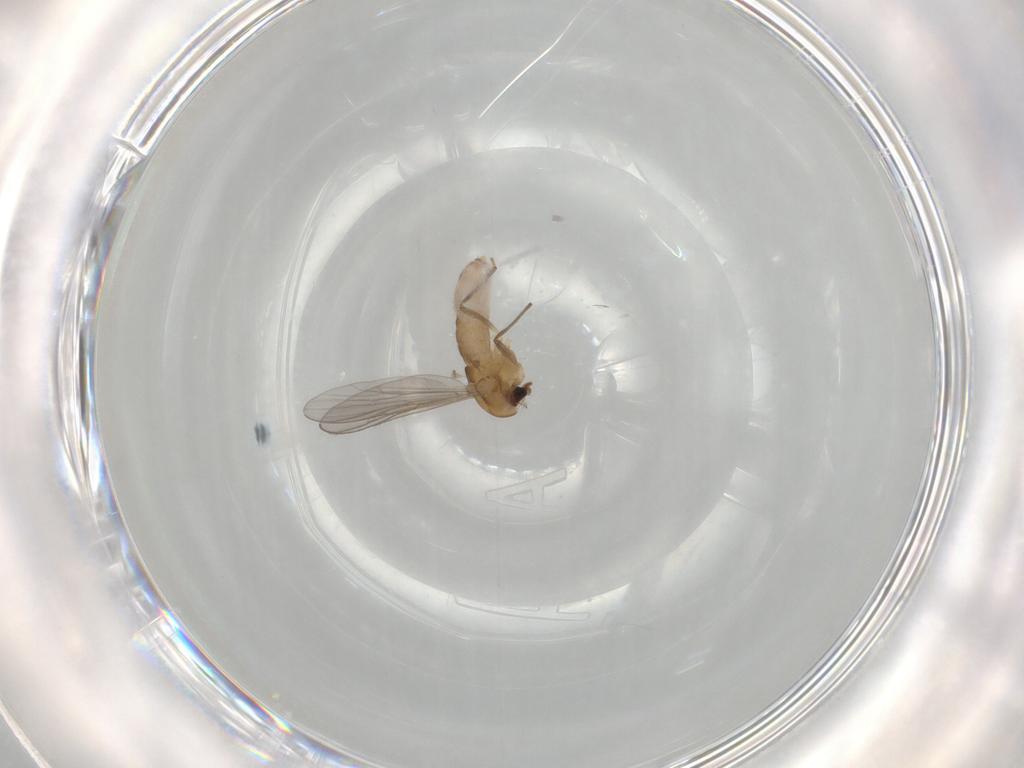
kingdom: Animalia
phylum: Arthropoda
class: Insecta
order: Diptera
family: Chironomidae
